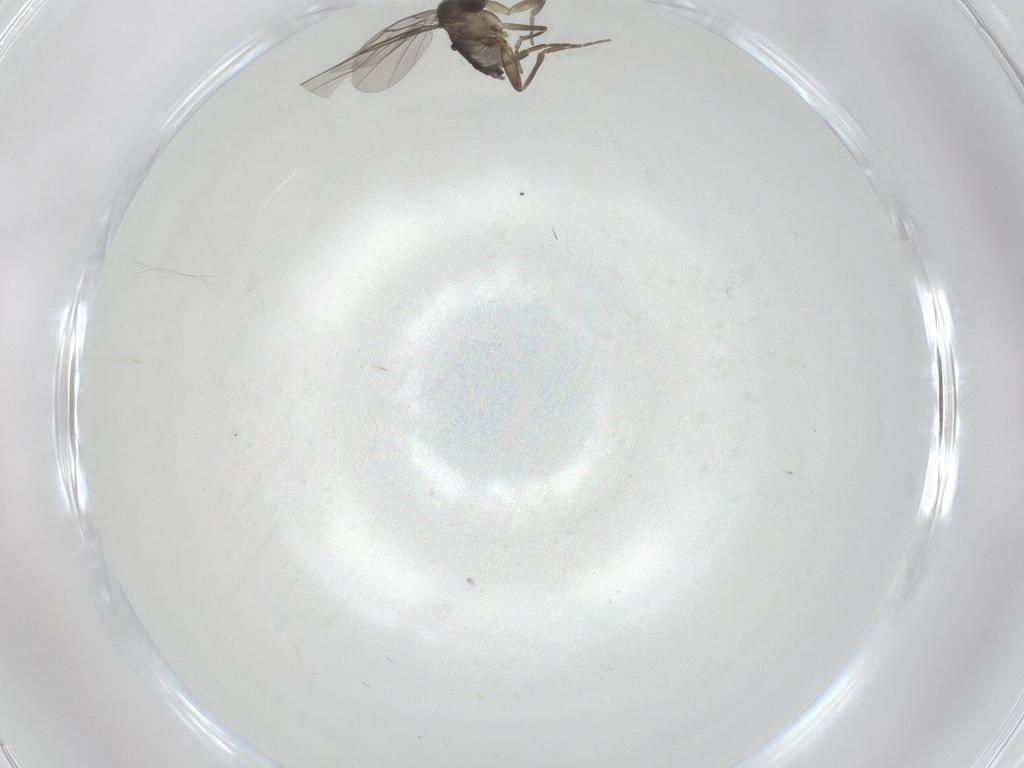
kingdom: Animalia
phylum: Arthropoda
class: Insecta
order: Diptera
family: Phoridae
